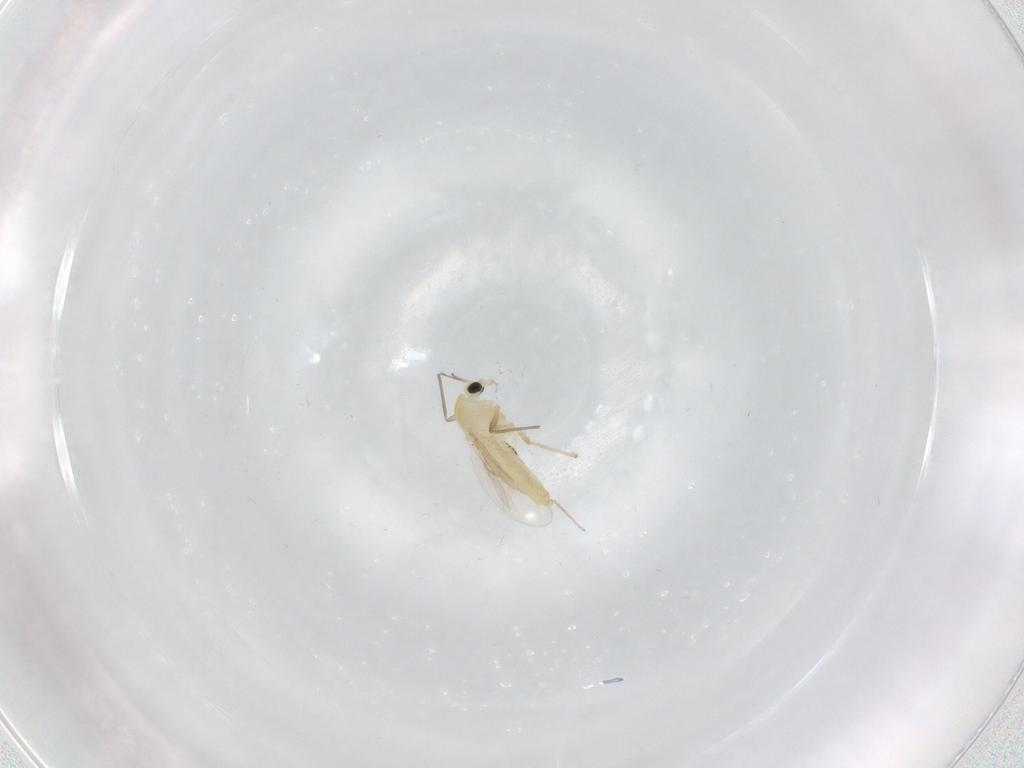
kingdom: Animalia
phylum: Arthropoda
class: Insecta
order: Diptera
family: Chironomidae
